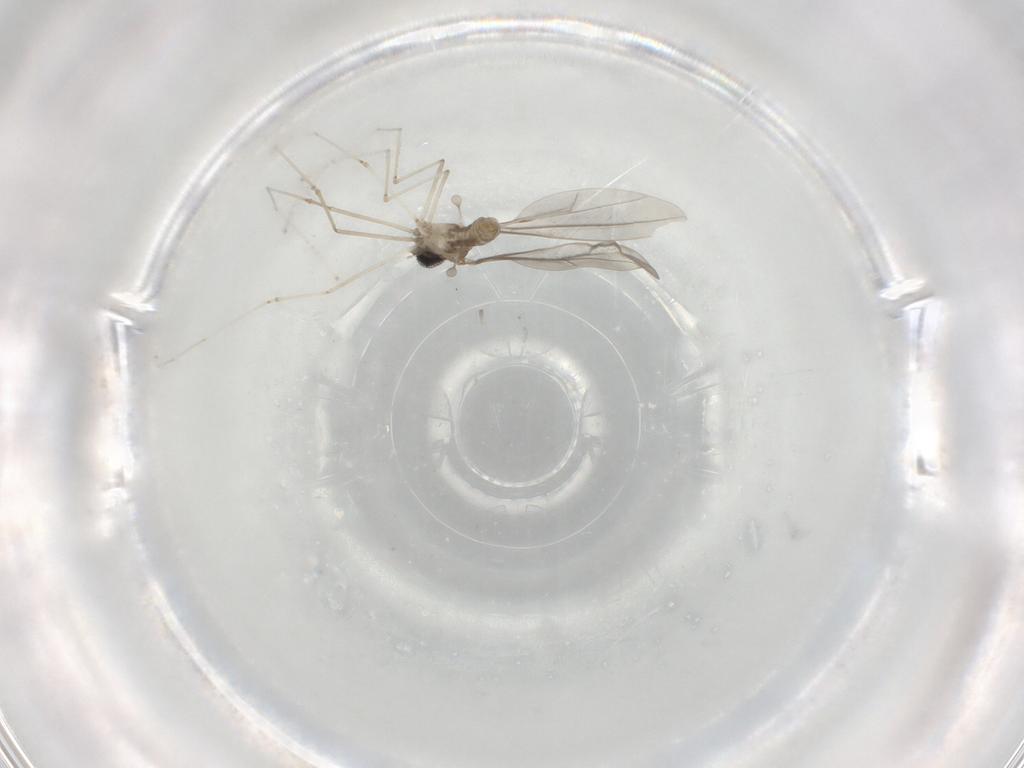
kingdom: Animalia
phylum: Arthropoda
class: Insecta
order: Diptera
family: Cecidomyiidae
